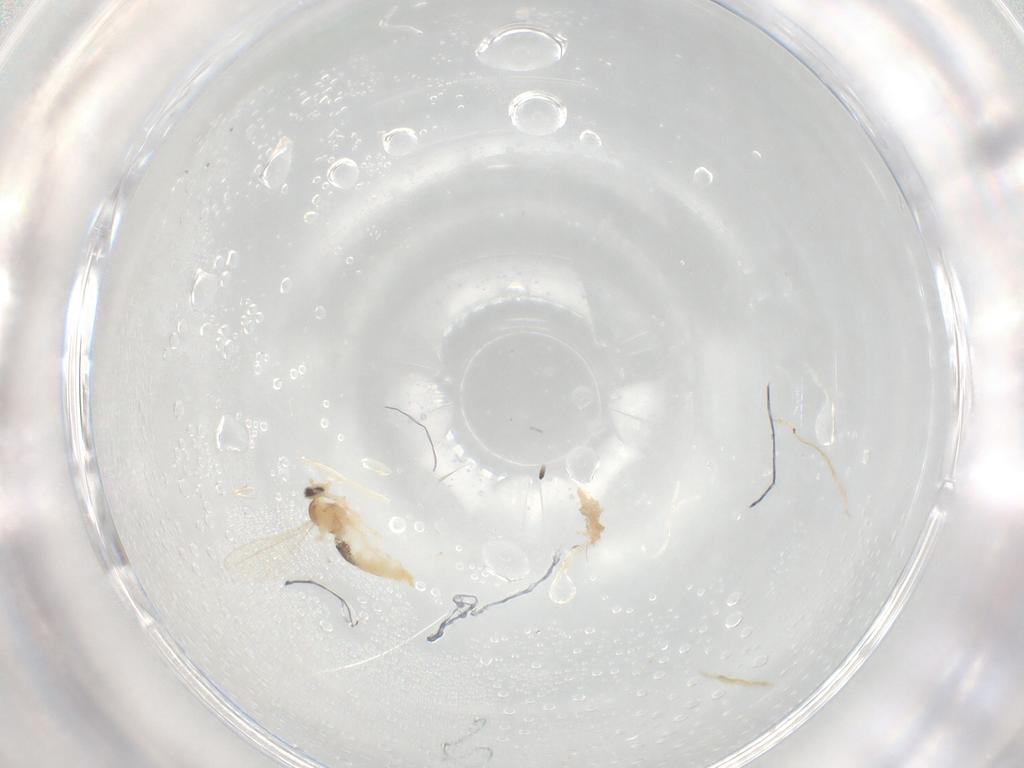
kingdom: Animalia
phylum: Arthropoda
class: Insecta
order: Diptera
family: Cecidomyiidae
